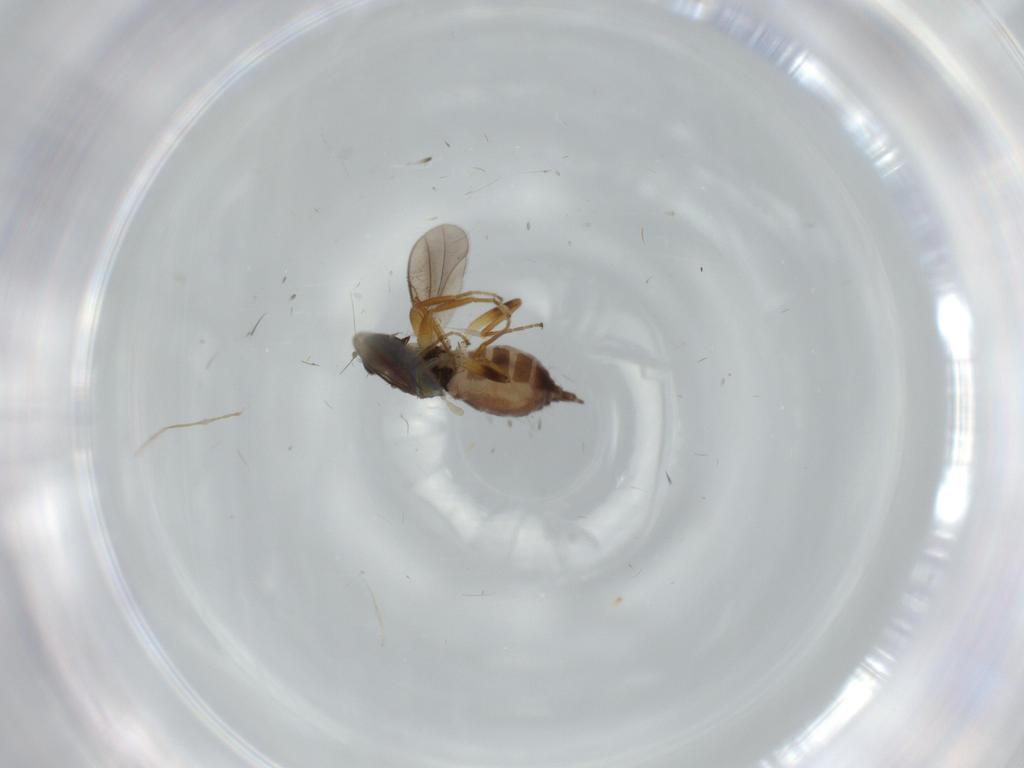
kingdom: Animalia
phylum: Arthropoda
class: Insecta
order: Diptera
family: Hybotidae
